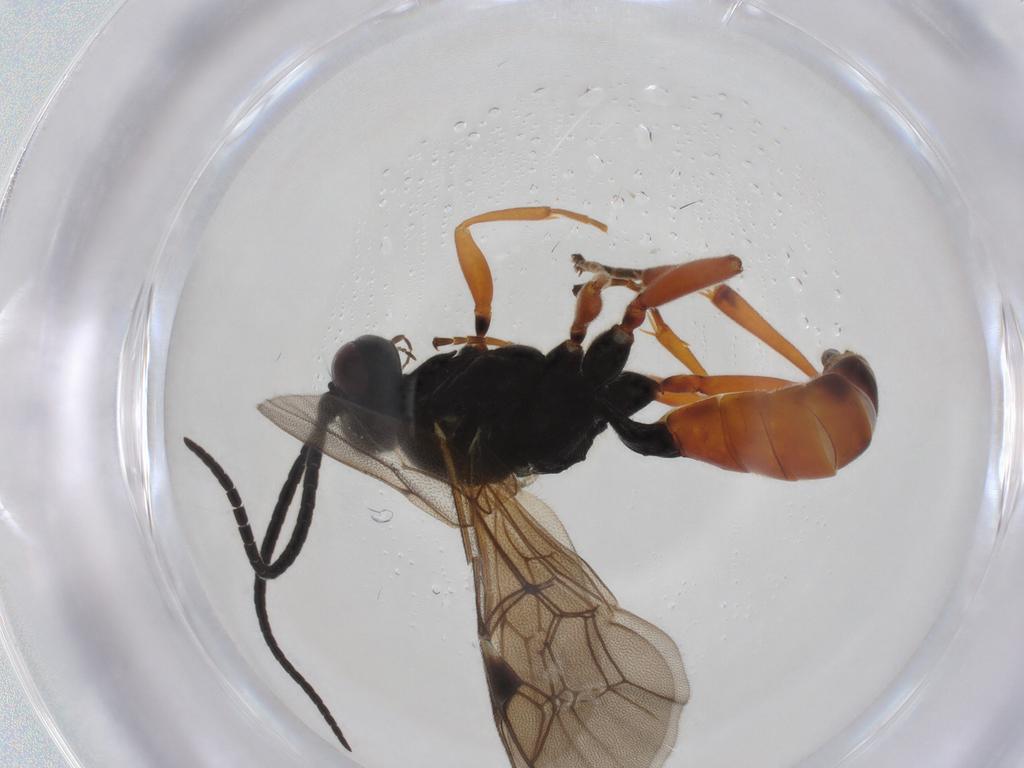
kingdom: Animalia
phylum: Arthropoda
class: Insecta
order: Hymenoptera
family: Ichneumonidae
